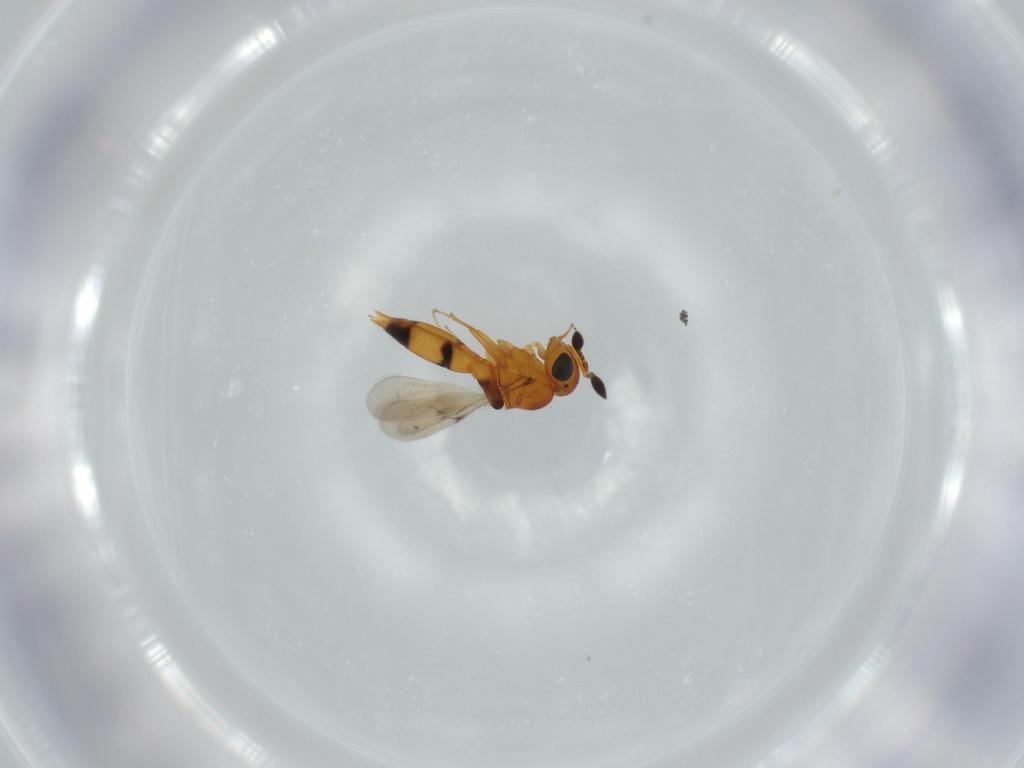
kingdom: Animalia
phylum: Arthropoda
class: Insecta
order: Hymenoptera
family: Scelionidae
